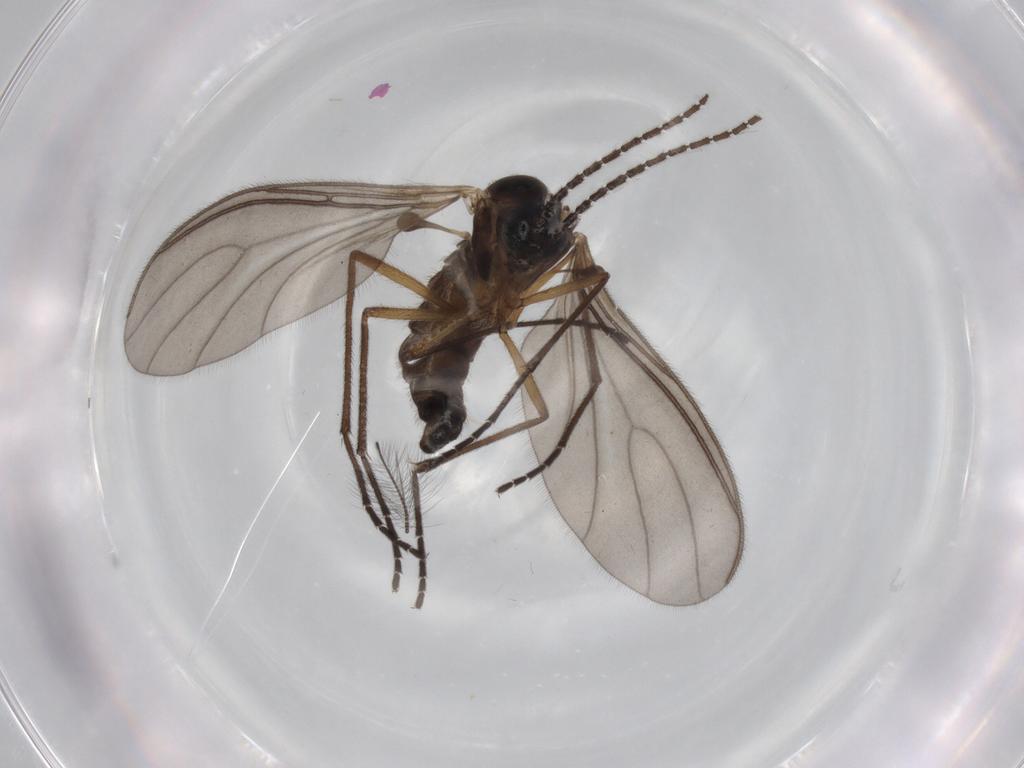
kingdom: Animalia
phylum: Arthropoda
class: Insecta
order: Diptera
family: Sciaridae
